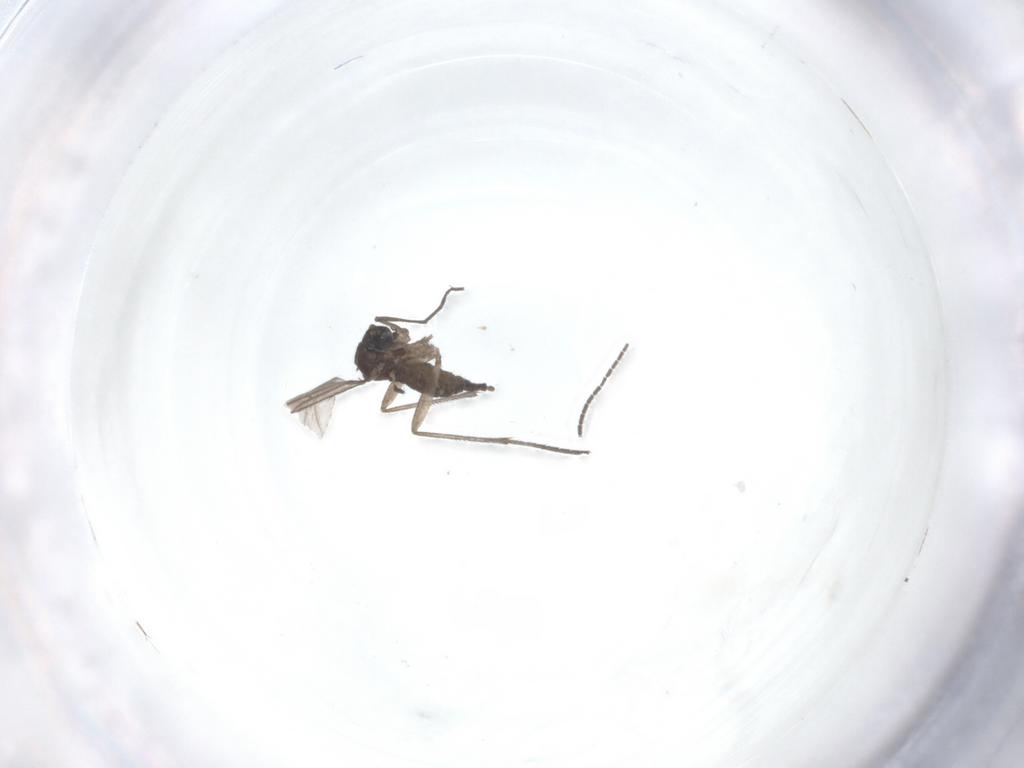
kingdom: Animalia
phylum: Arthropoda
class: Insecta
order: Diptera
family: Sciaridae
